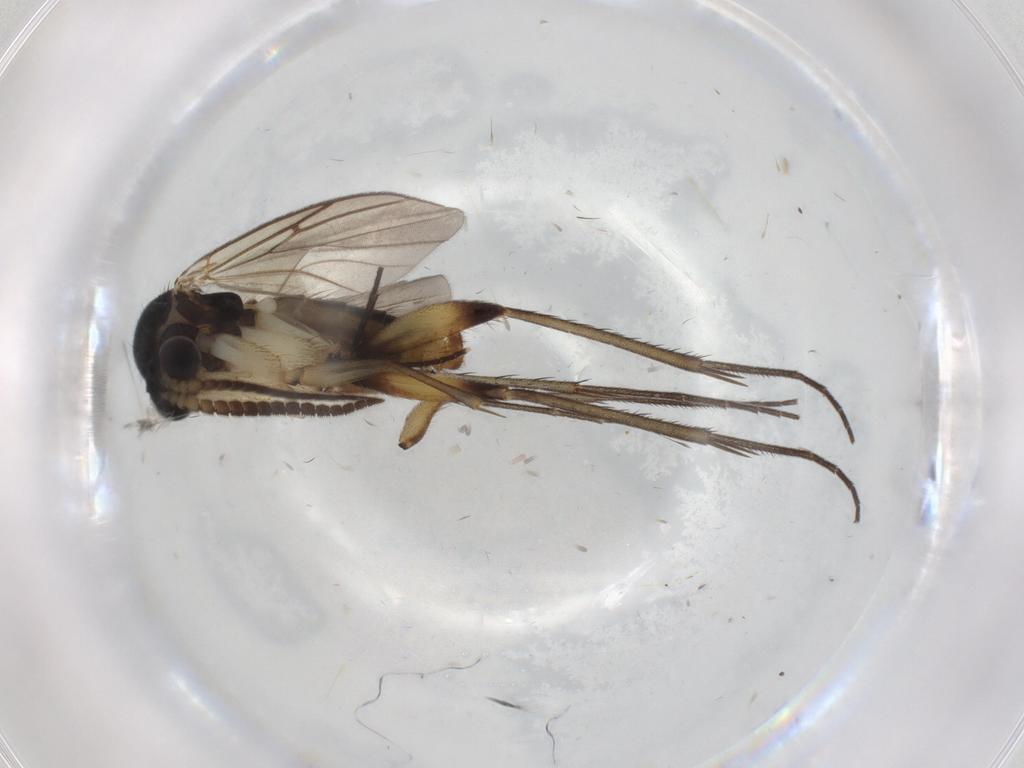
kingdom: Animalia
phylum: Arthropoda
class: Insecta
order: Diptera
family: Sciaridae
